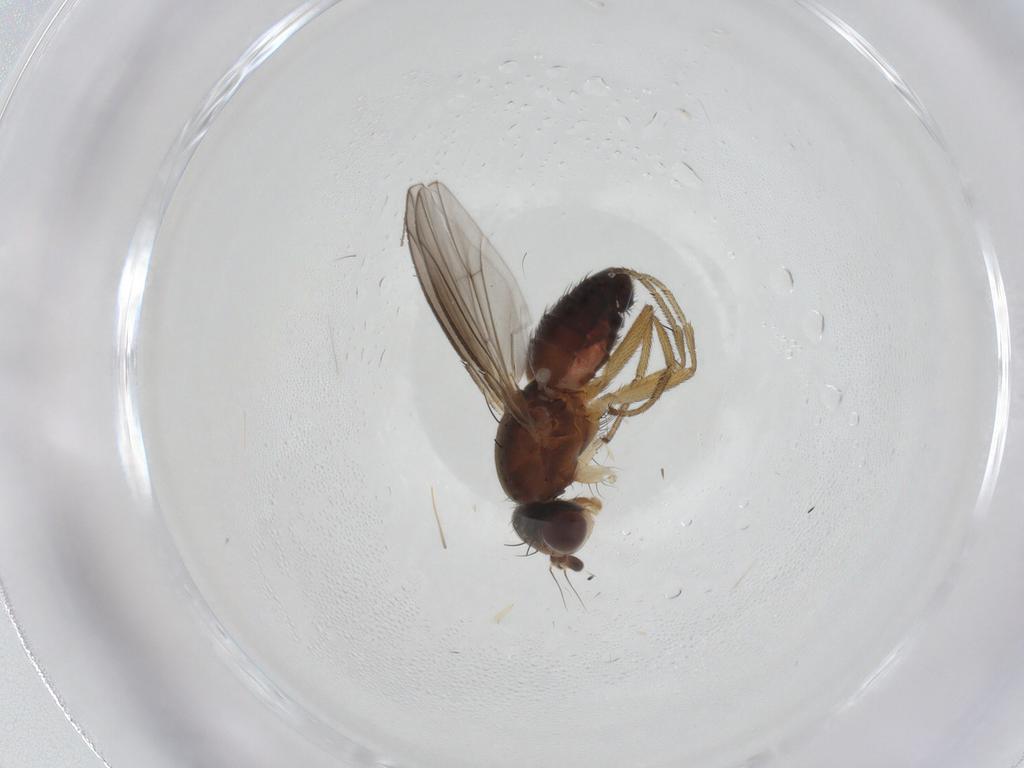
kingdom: Animalia
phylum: Arthropoda
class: Insecta
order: Diptera
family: Heleomyzidae
